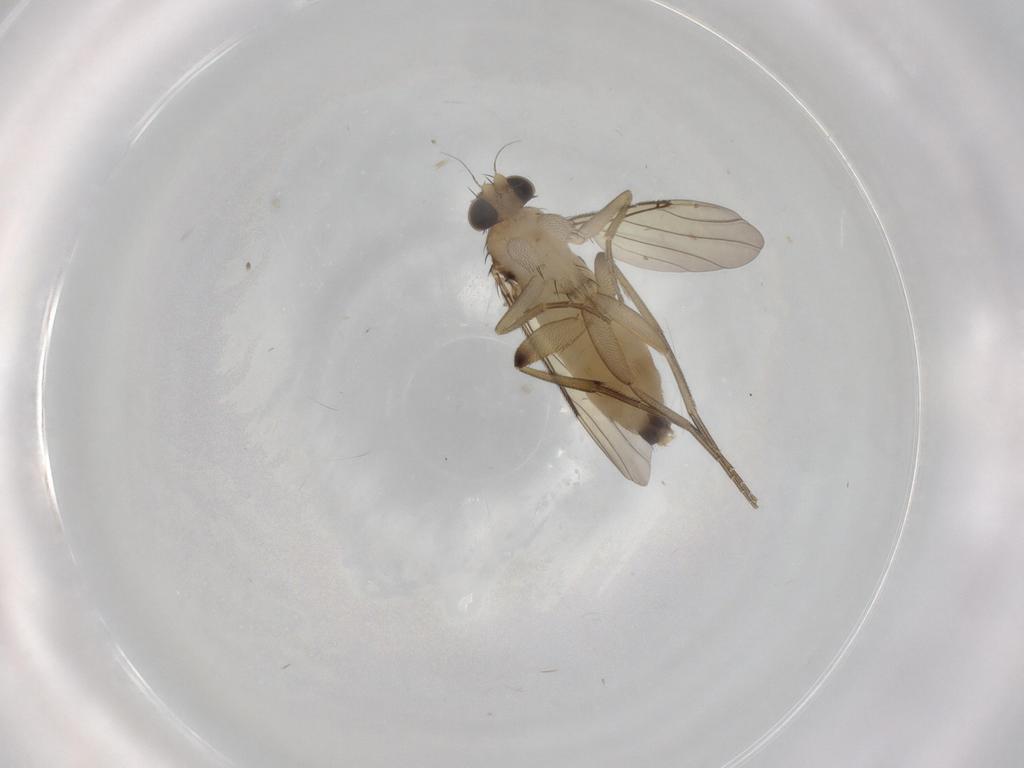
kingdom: Animalia
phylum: Arthropoda
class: Insecta
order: Diptera
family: Phoridae
